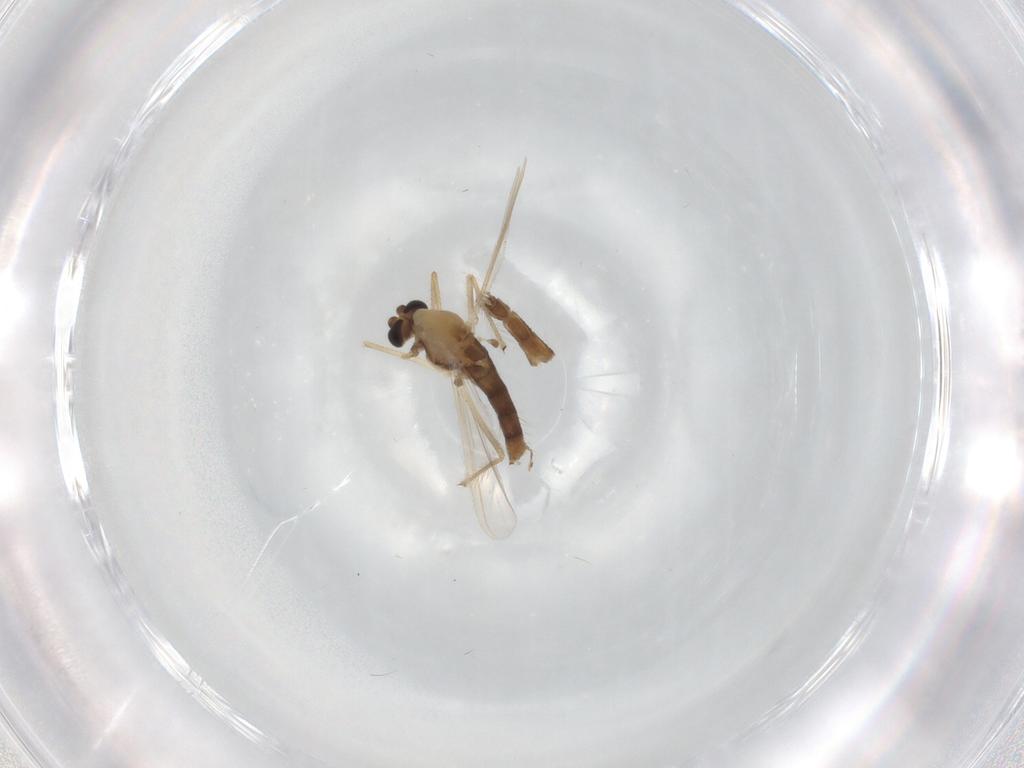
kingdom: Animalia
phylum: Arthropoda
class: Insecta
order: Diptera
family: Chironomidae
